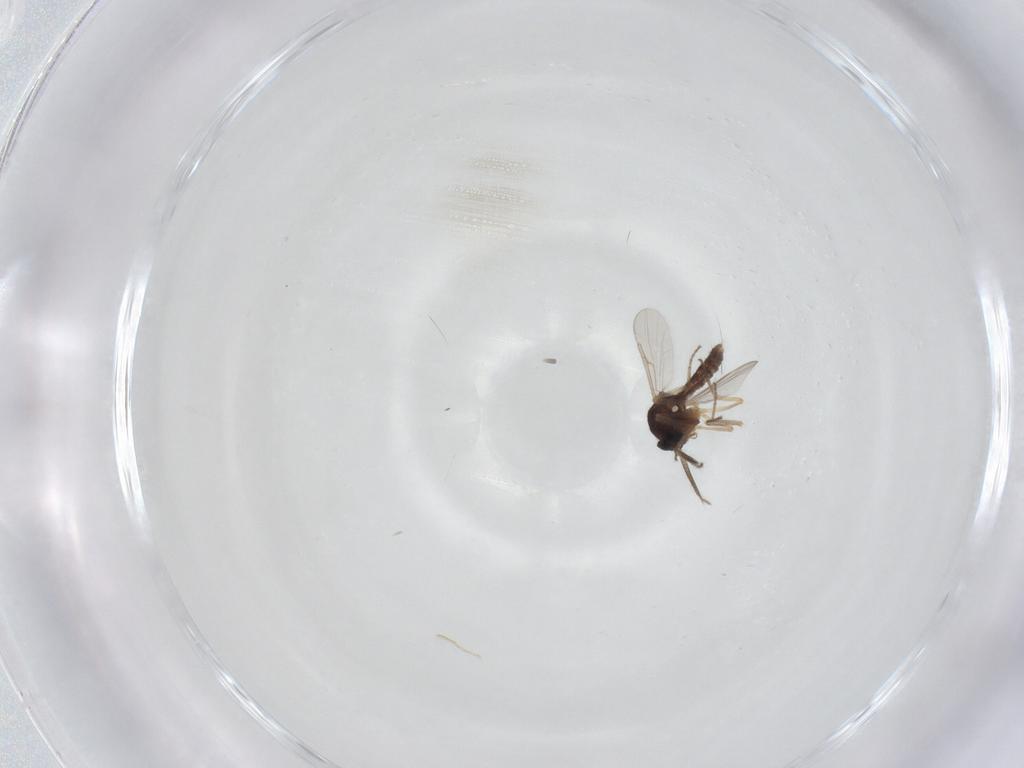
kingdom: Animalia
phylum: Arthropoda
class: Insecta
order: Diptera
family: Ceratopogonidae
